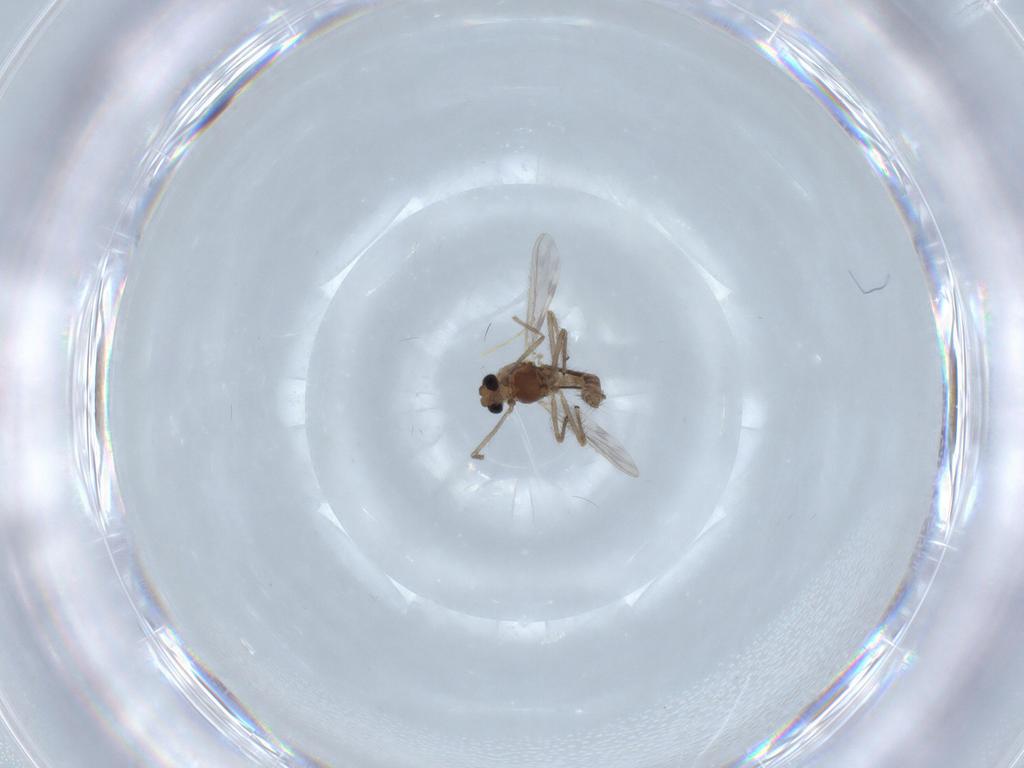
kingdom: Animalia
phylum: Arthropoda
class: Insecta
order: Diptera
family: Chironomidae
